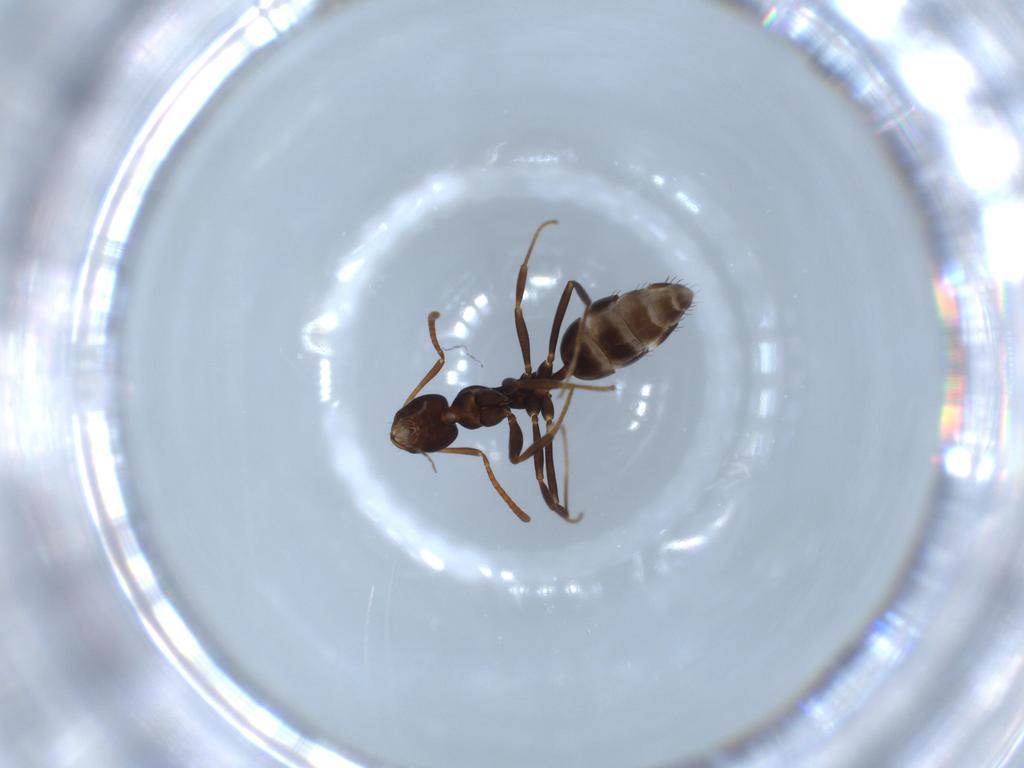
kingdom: Animalia
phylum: Arthropoda
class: Insecta
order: Hymenoptera
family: Formicidae
